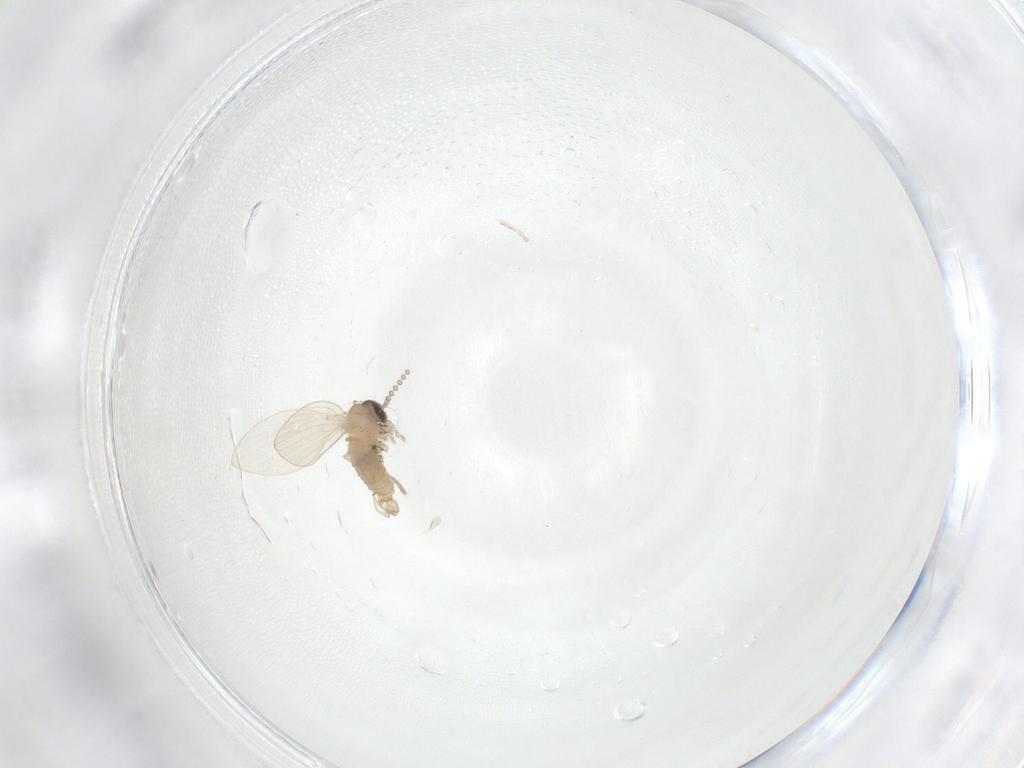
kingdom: Animalia
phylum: Arthropoda
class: Insecta
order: Diptera
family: Psychodidae
